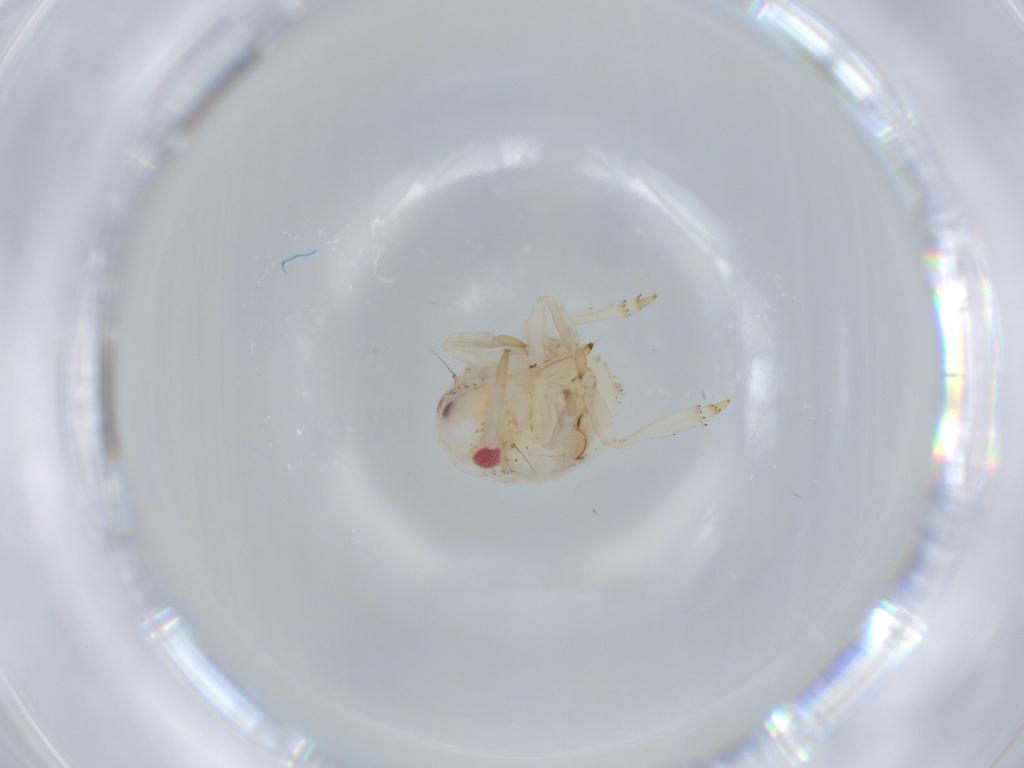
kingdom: Animalia
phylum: Arthropoda
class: Insecta
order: Hemiptera
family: Acanaloniidae
